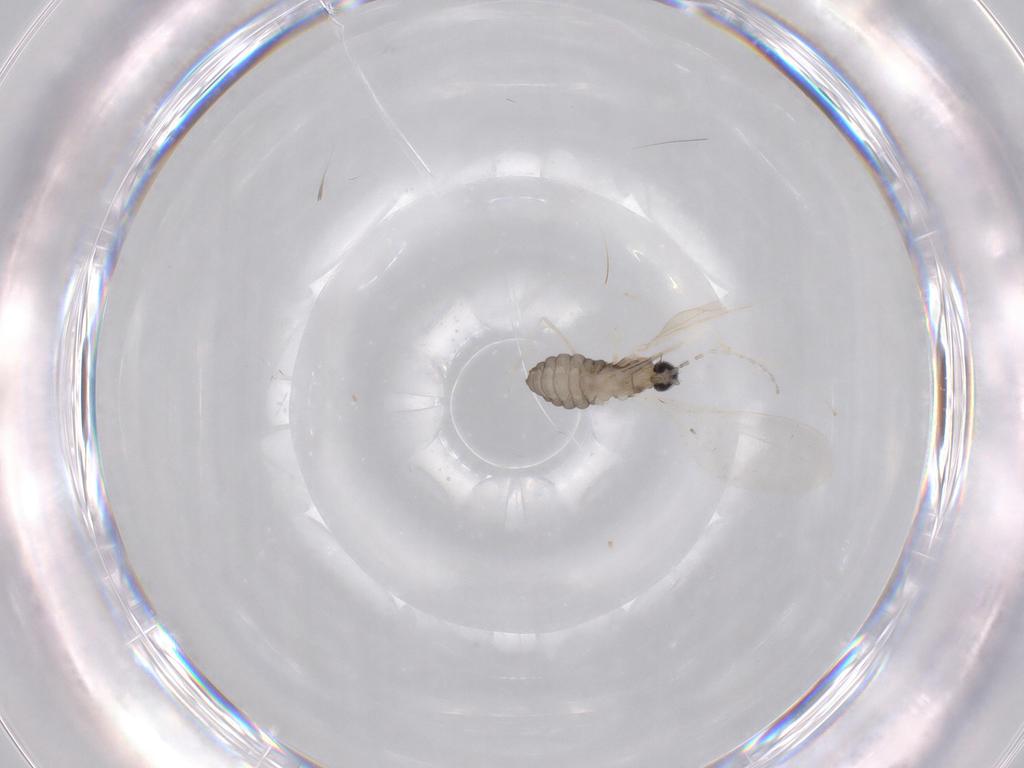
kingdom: Animalia
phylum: Arthropoda
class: Insecta
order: Diptera
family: Cecidomyiidae
